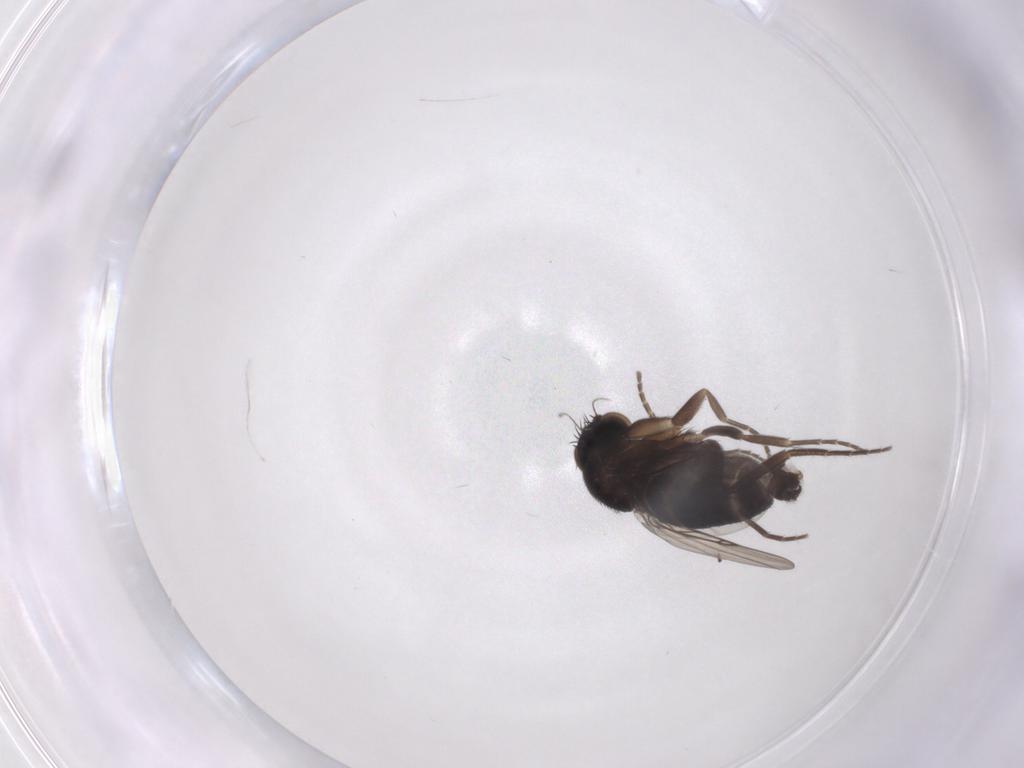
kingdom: Animalia
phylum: Arthropoda
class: Insecta
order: Diptera
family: Phoridae
